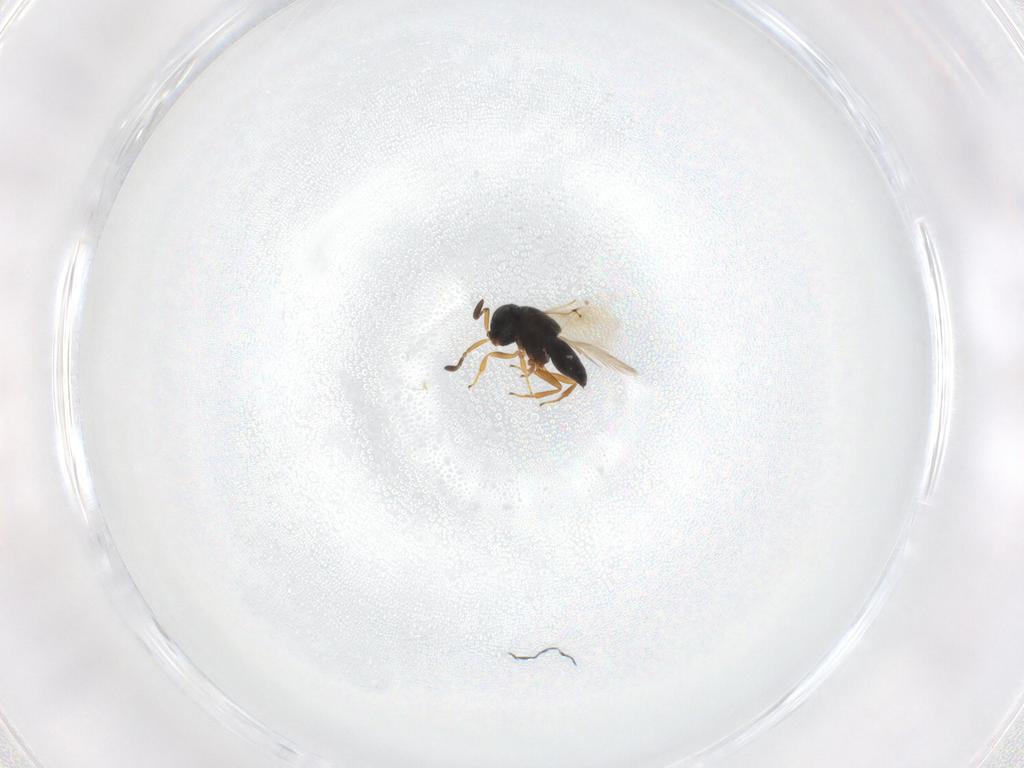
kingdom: Animalia
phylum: Arthropoda
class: Insecta
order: Hymenoptera
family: Scelionidae
